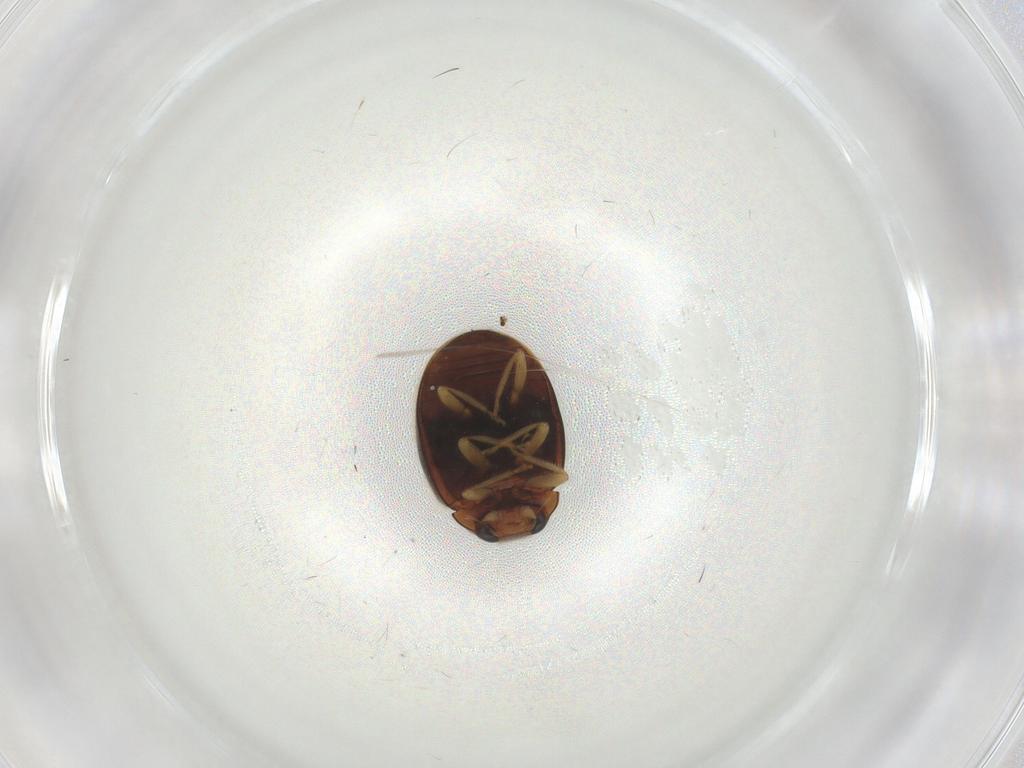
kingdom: Animalia
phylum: Arthropoda
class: Insecta
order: Coleoptera
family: Coccinellidae
